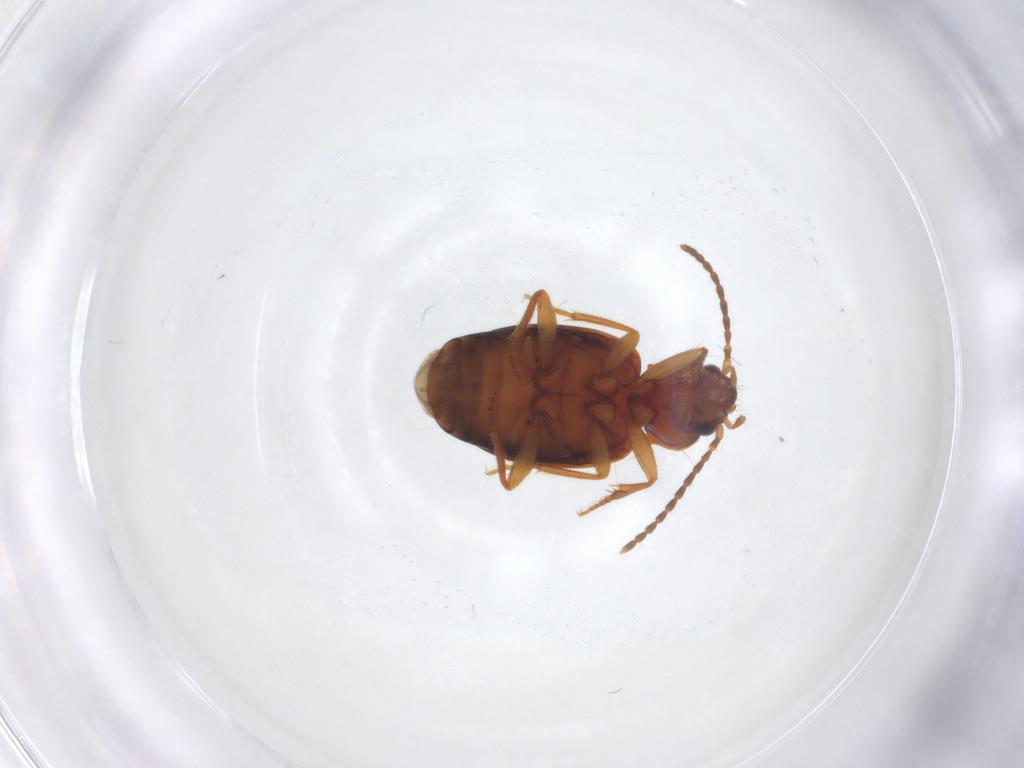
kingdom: Animalia
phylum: Arthropoda
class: Insecta
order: Coleoptera
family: Carabidae
